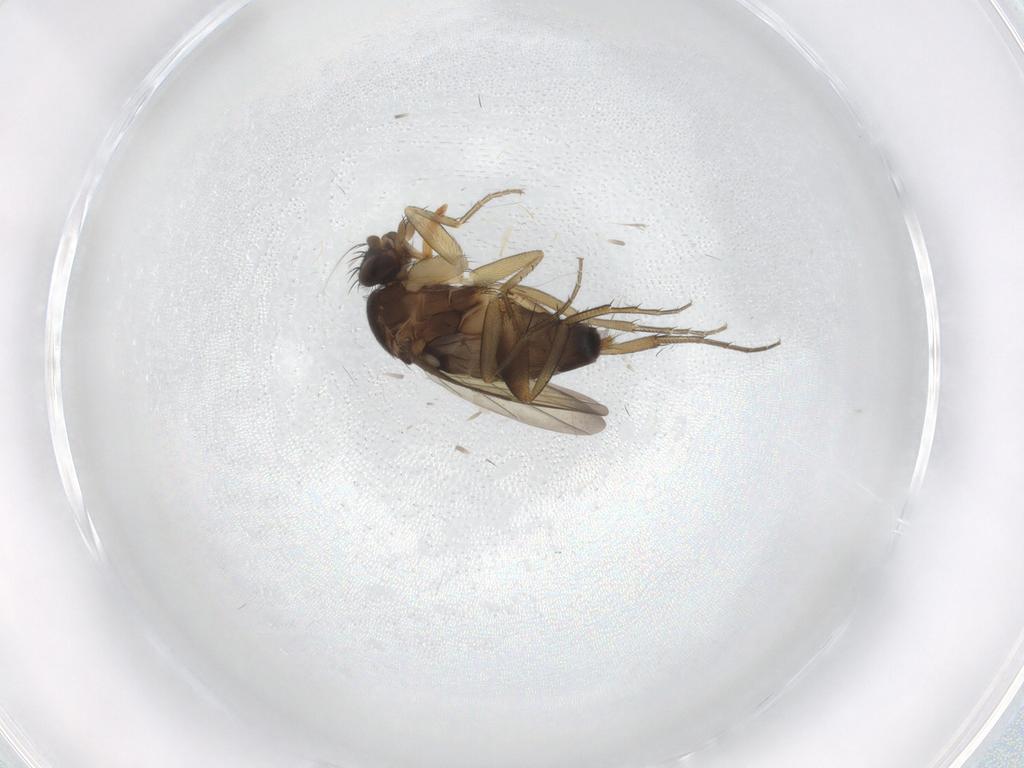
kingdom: Animalia
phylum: Arthropoda
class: Insecta
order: Diptera
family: Phoridae
